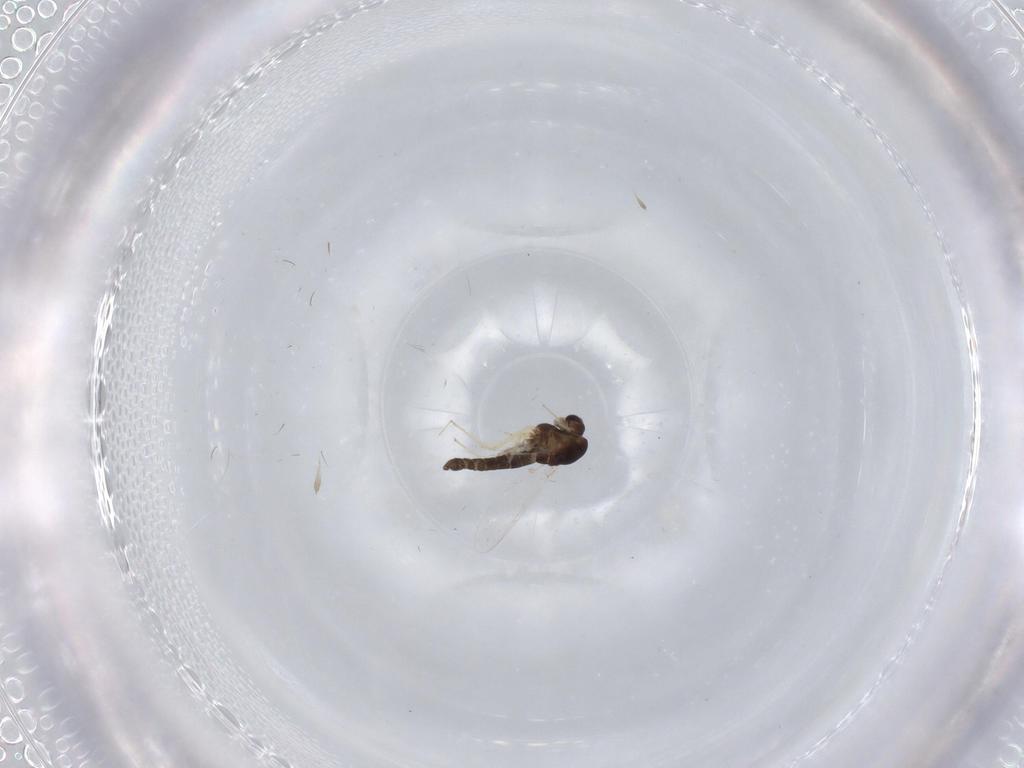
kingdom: Animalia
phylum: Arthropoda
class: Insecta
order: Diptera
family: Chironomidae
